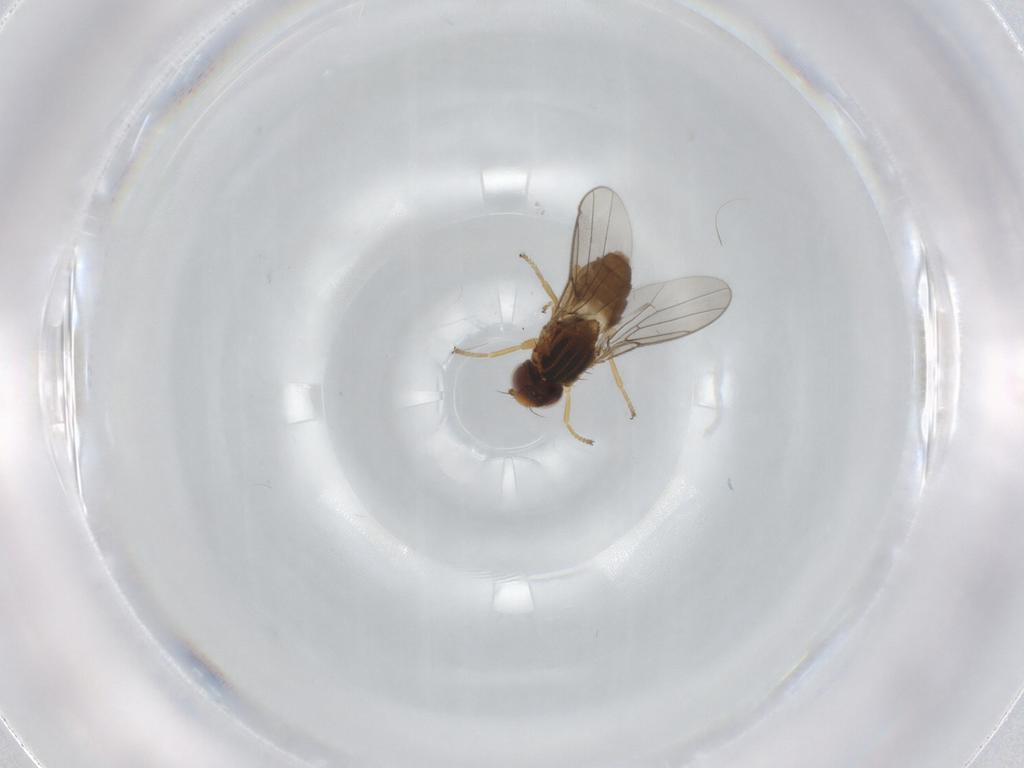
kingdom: Animalia
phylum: Arthropoda
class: Insecta
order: Diptera
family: Chloropidae
